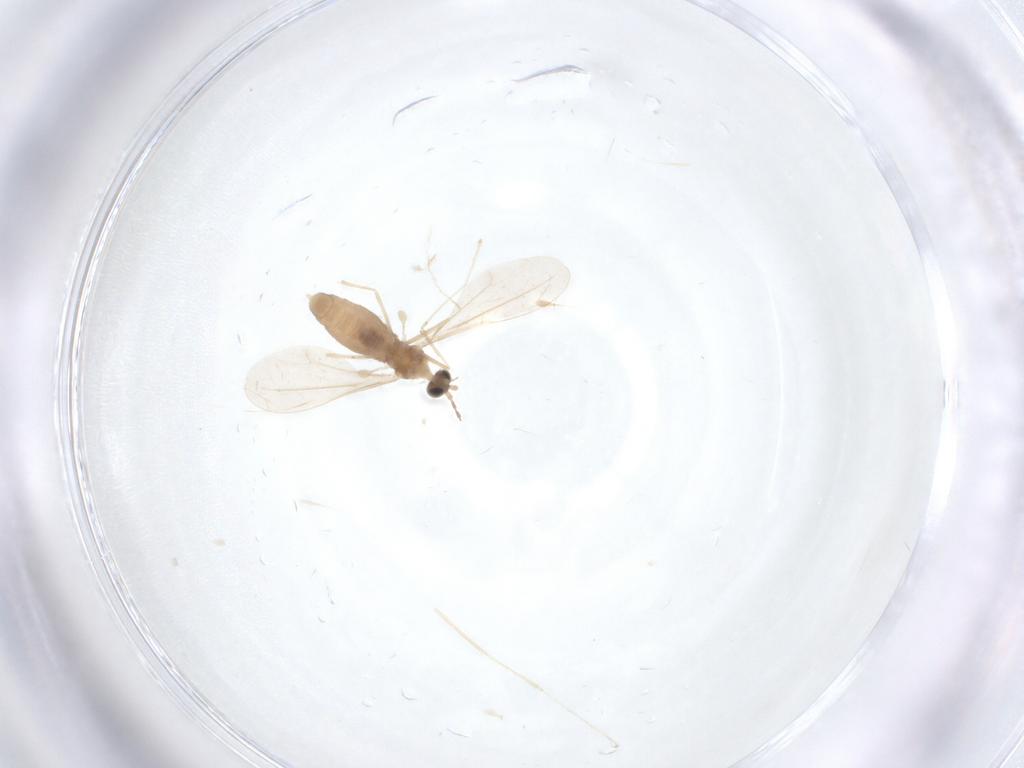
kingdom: Animalia
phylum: Arthropoda
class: Insecta
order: Diptera
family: Cecidomyiidae
